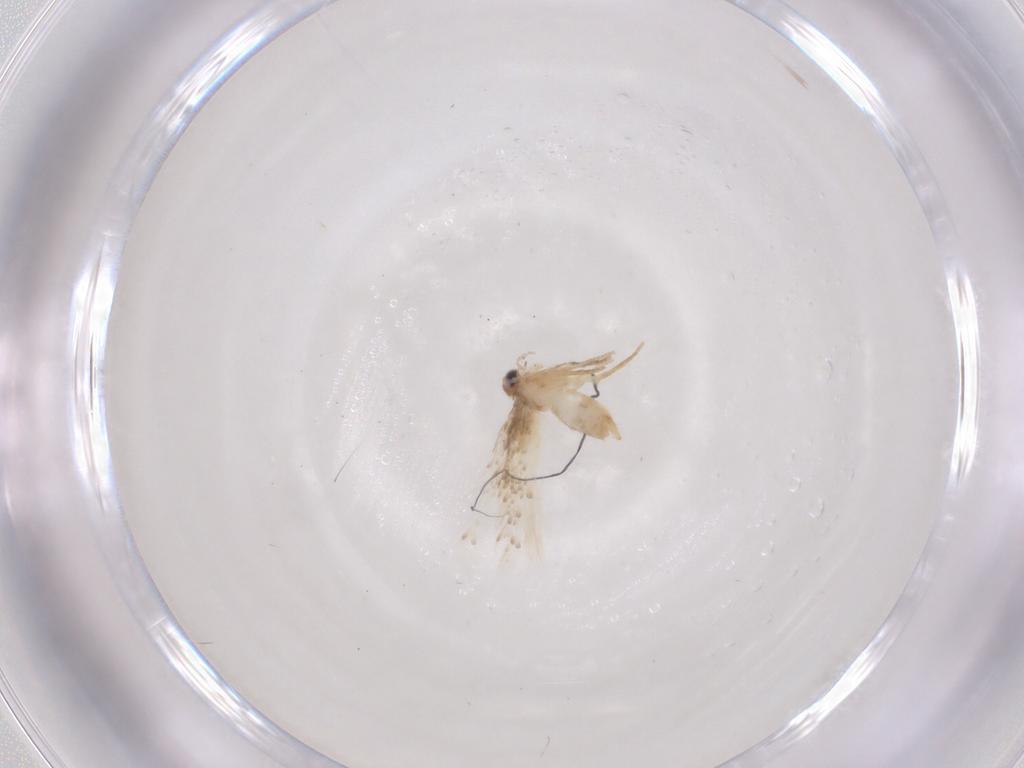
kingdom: Animalia
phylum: Arthropoda
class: Insecta
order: Lepidoptera
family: Nepticulidae
